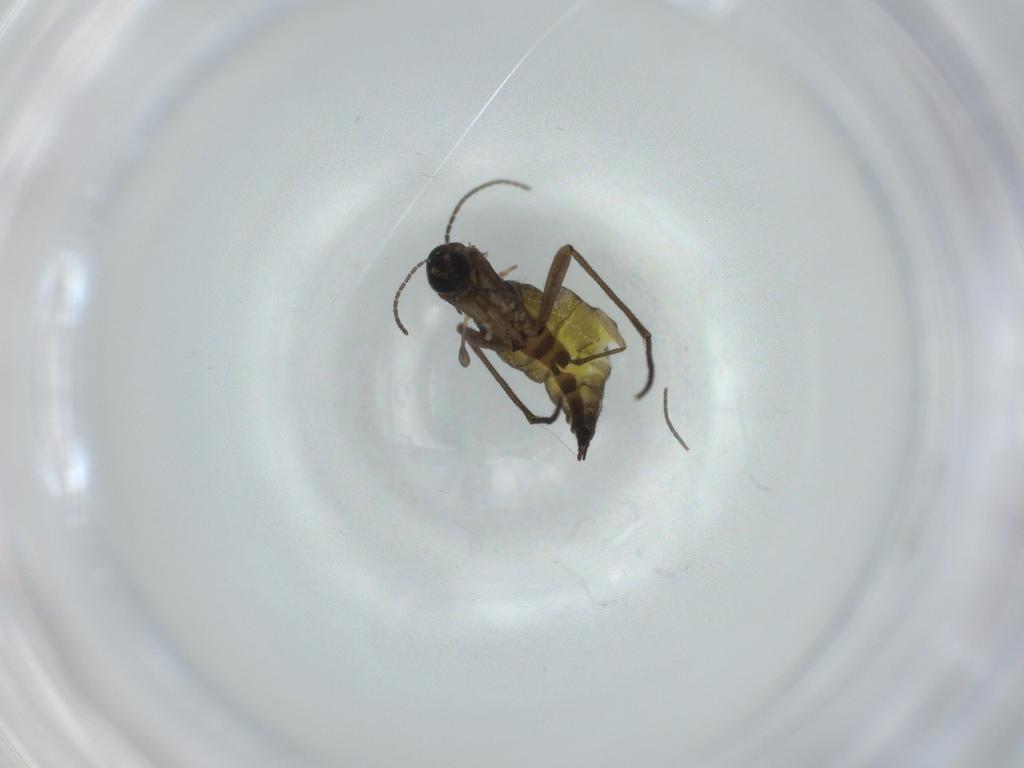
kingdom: Animalia
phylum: Arthropoda
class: Insecta
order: Diptera
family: Sciaridae
